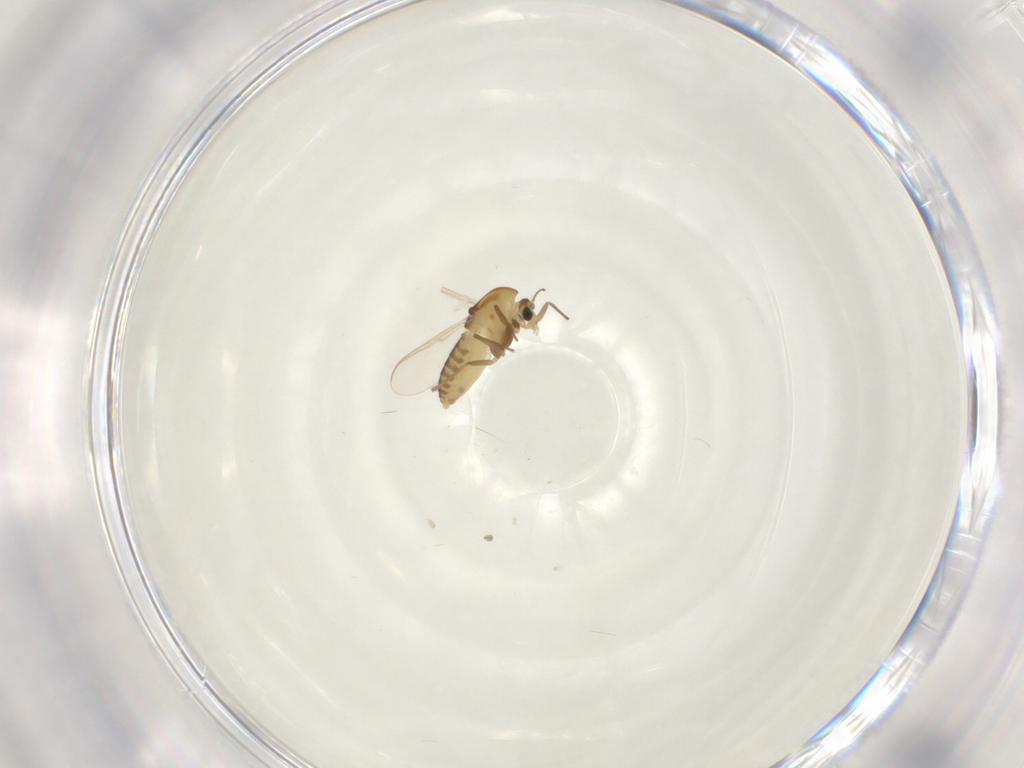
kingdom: Animalia
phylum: Arthropoda
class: Insecta
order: Diptera
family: Chironomidae
